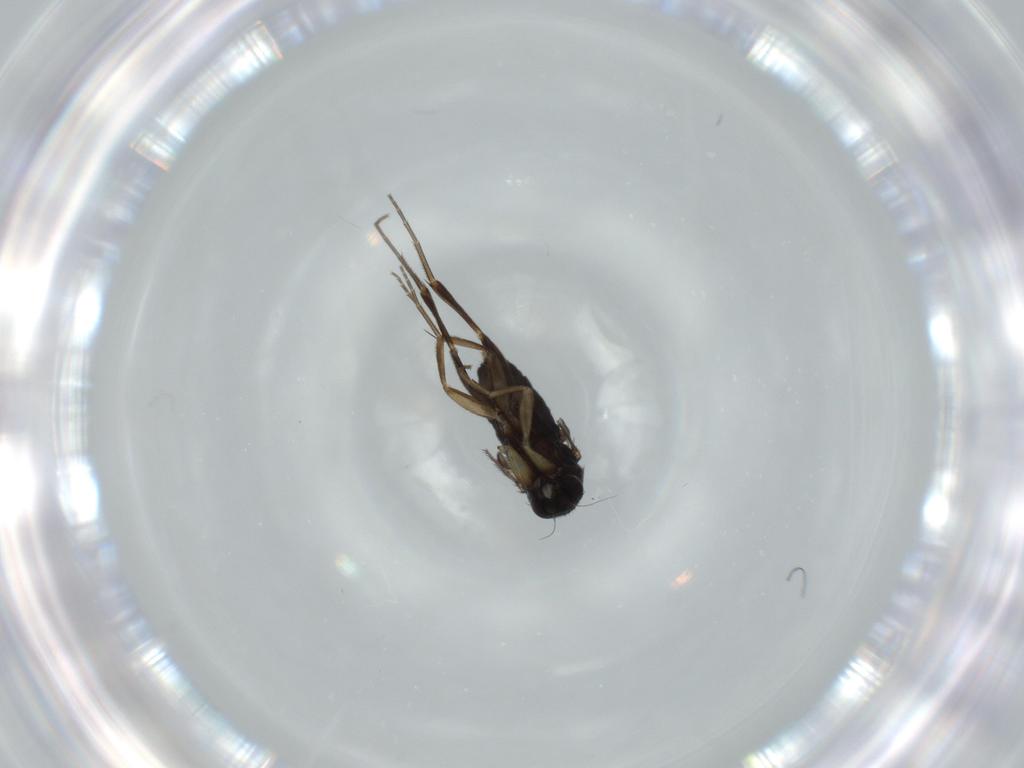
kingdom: Animalia
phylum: Arthropoda
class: Insecta
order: Diptera
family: Phoridae
